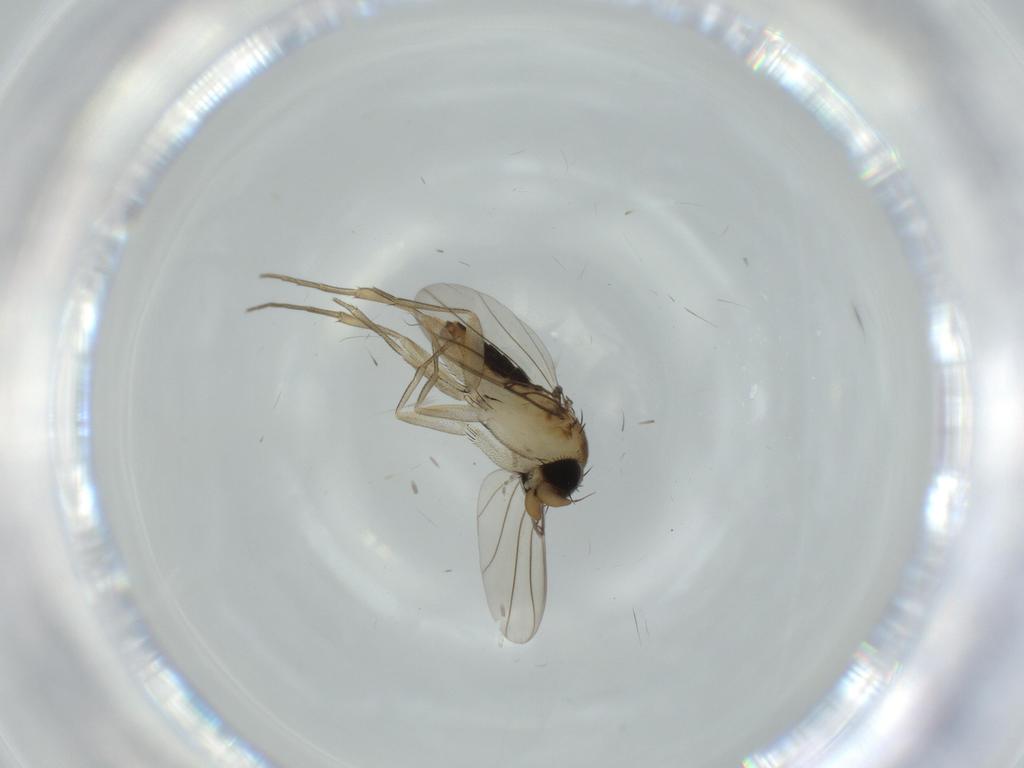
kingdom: Animalia
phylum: Arthropoda
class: Insecta
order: Diptera
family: Phoridae
